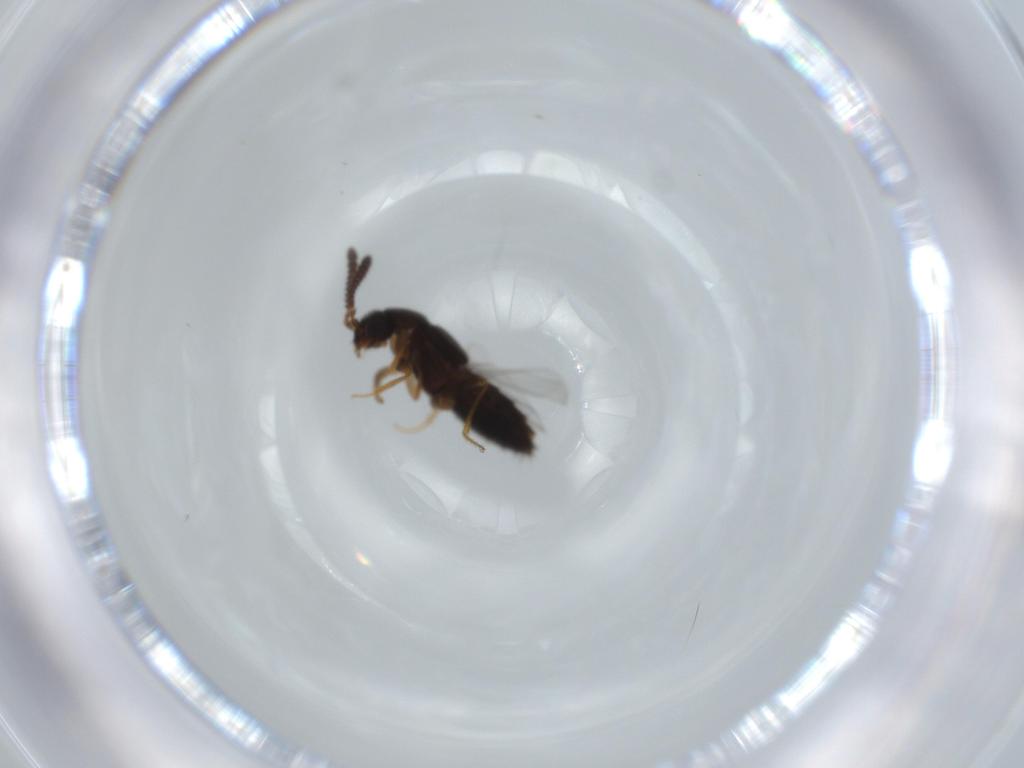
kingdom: Animalia
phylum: Arthropoda
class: Insecta
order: Coleoptera
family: Staphylinidae
